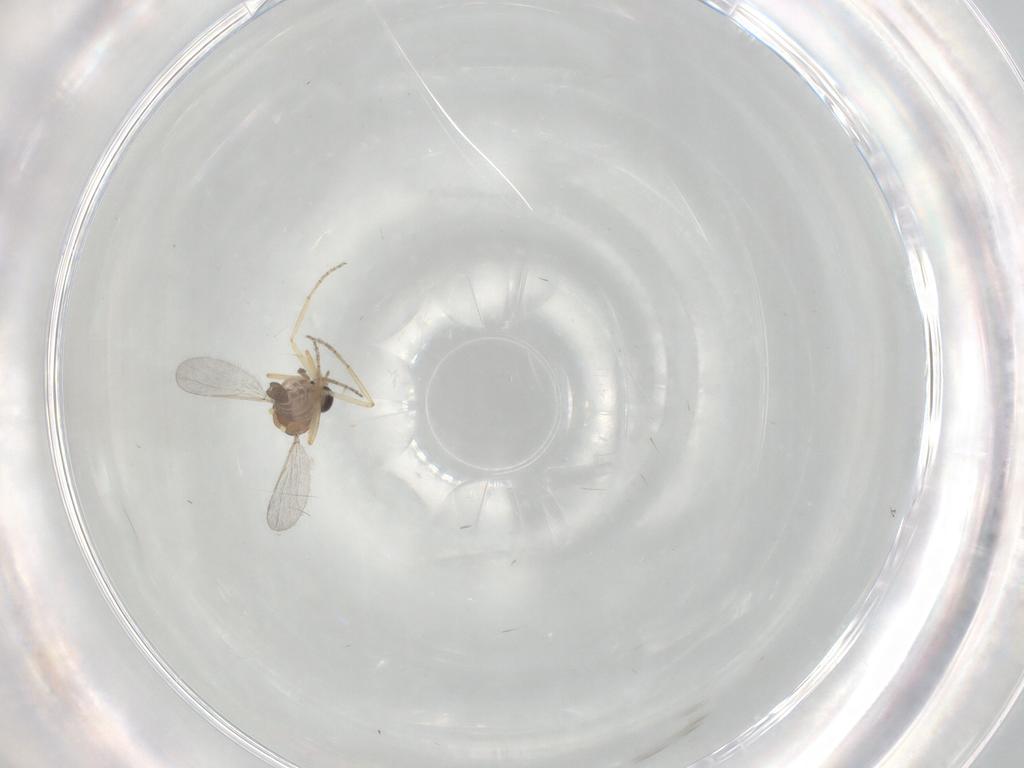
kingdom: Animalia
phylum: Arthropoda
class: Insecta
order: Diptera
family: Ceratopogonidae
